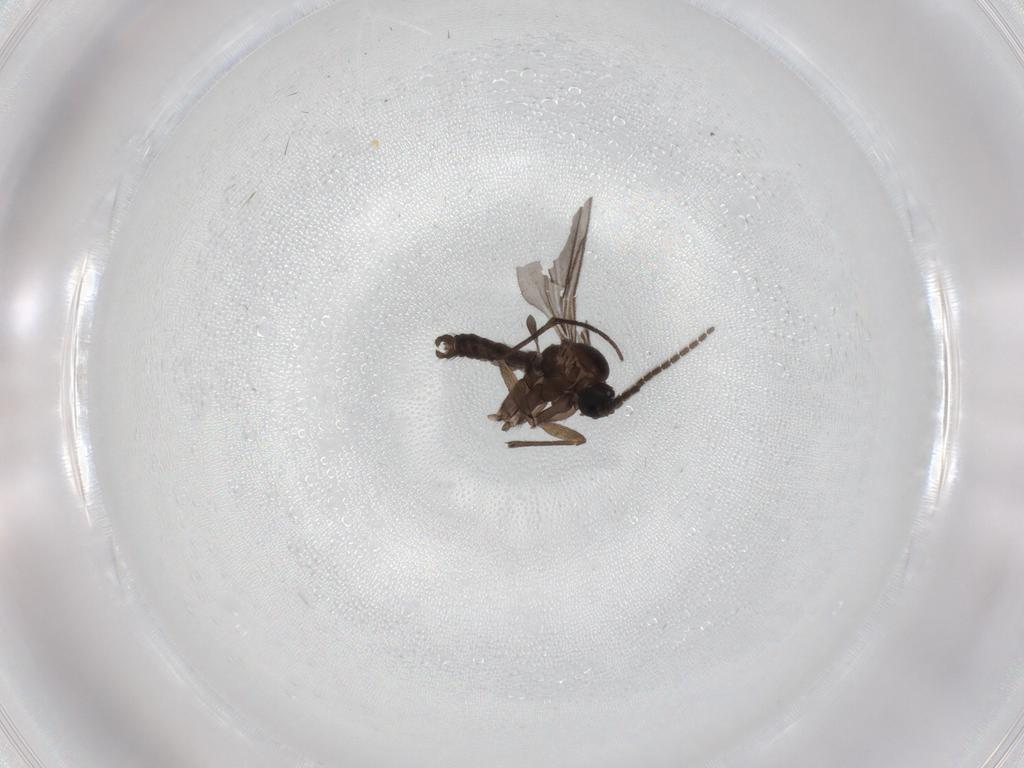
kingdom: Animalia
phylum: Arthropoda
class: Insecta
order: Diptera
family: Sciaridae
